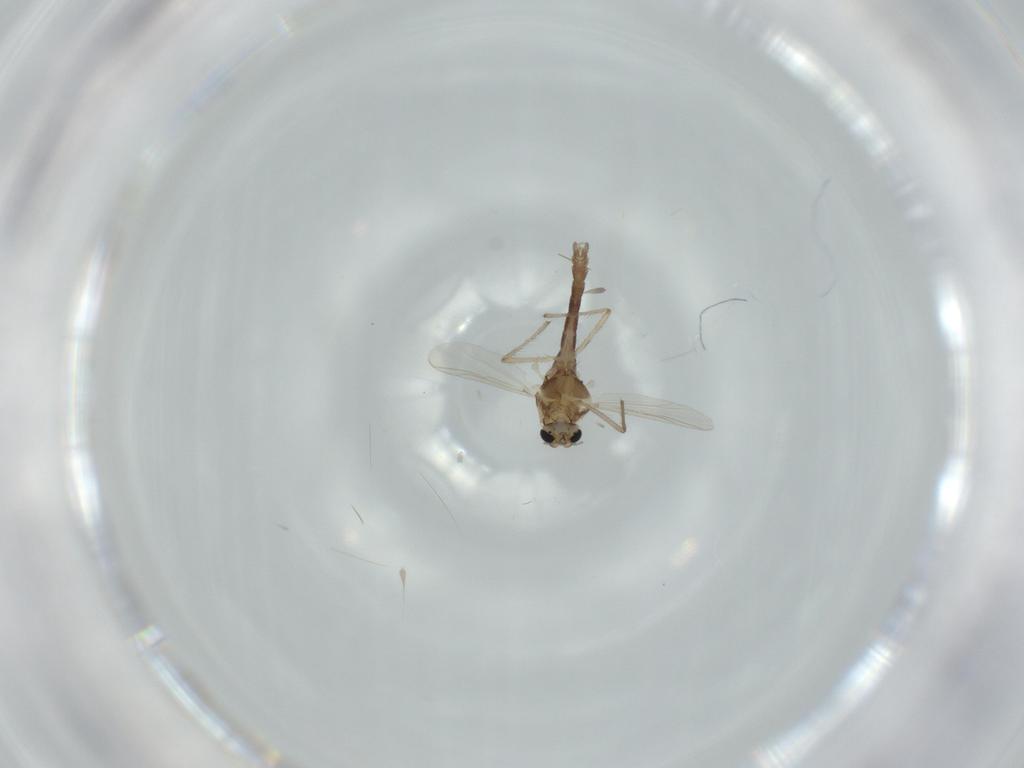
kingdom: Animalia
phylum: Arthropoda
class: Insecta
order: Diptera
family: Chironomidae
